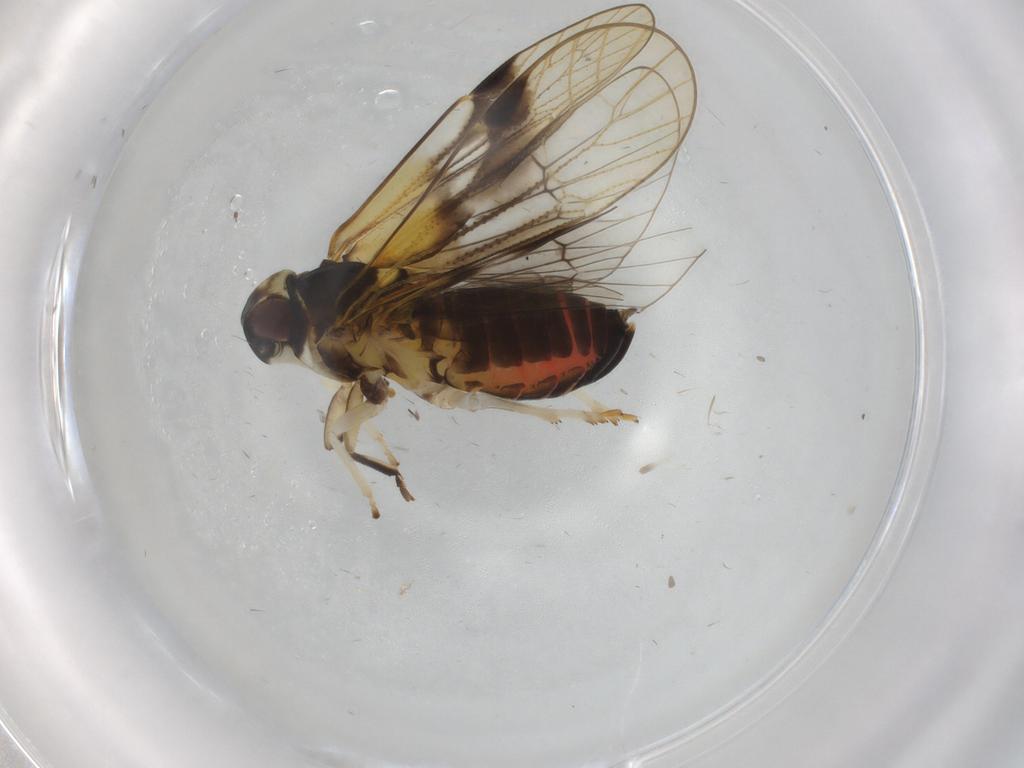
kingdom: Animalia
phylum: Arthropoda
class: Insecta
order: Hemiptera
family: Cixiidae
